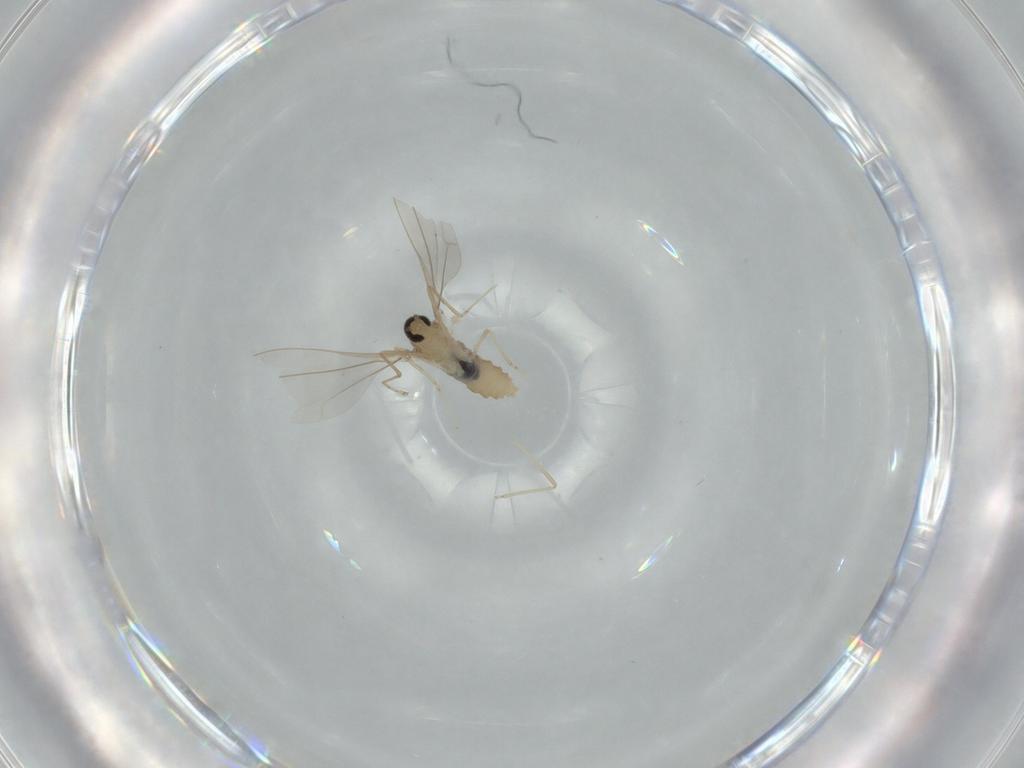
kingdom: Animalia
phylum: Arthropoda
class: Insecta
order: Diptera
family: Cecidomyiidae
